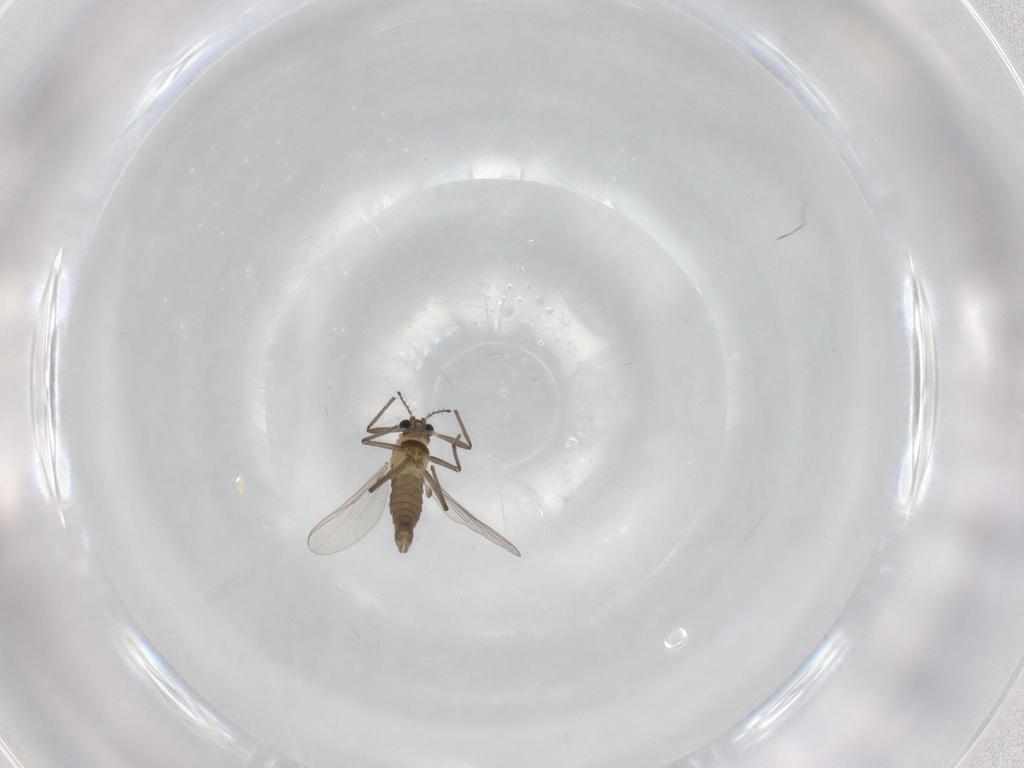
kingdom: Animalia
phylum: Arthropoda
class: Insecta
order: Diptera
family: Chironomidae
